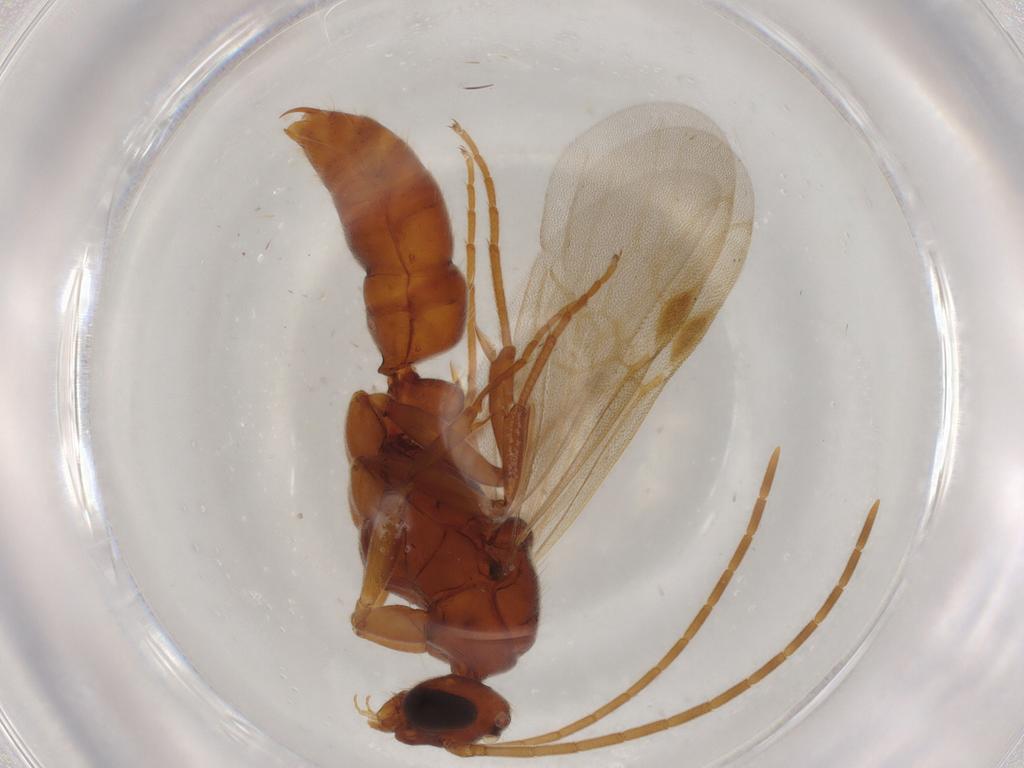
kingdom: Animalia
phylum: Arthropoda
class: Insecta
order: Hymenoptera
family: Formicidae
